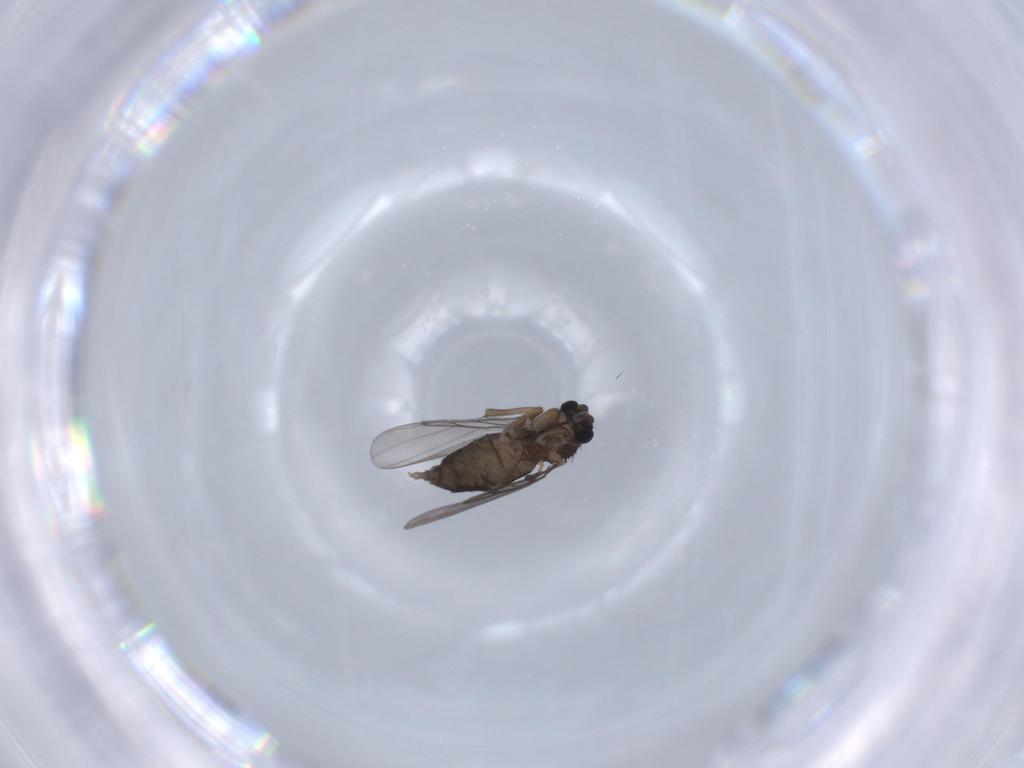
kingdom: Animalia
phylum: Arthropoda
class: Insecta
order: Diptera
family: Phoridae
